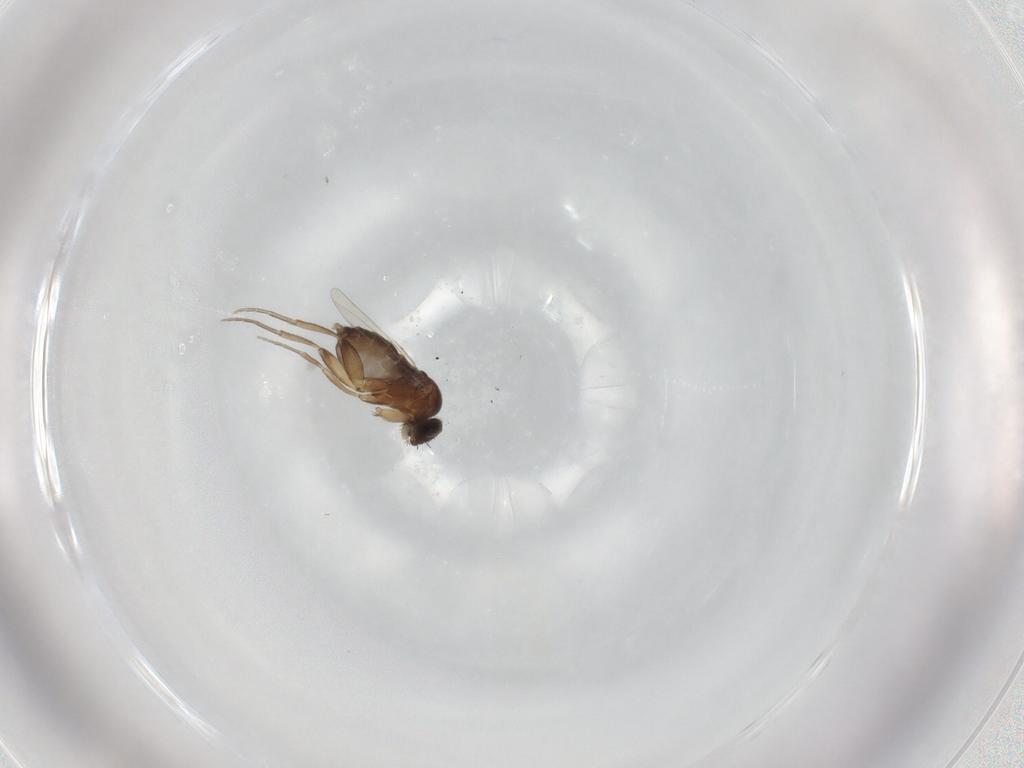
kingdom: Animalia
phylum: Arthropoda
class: Insecta
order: Diptera
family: Phoridae
